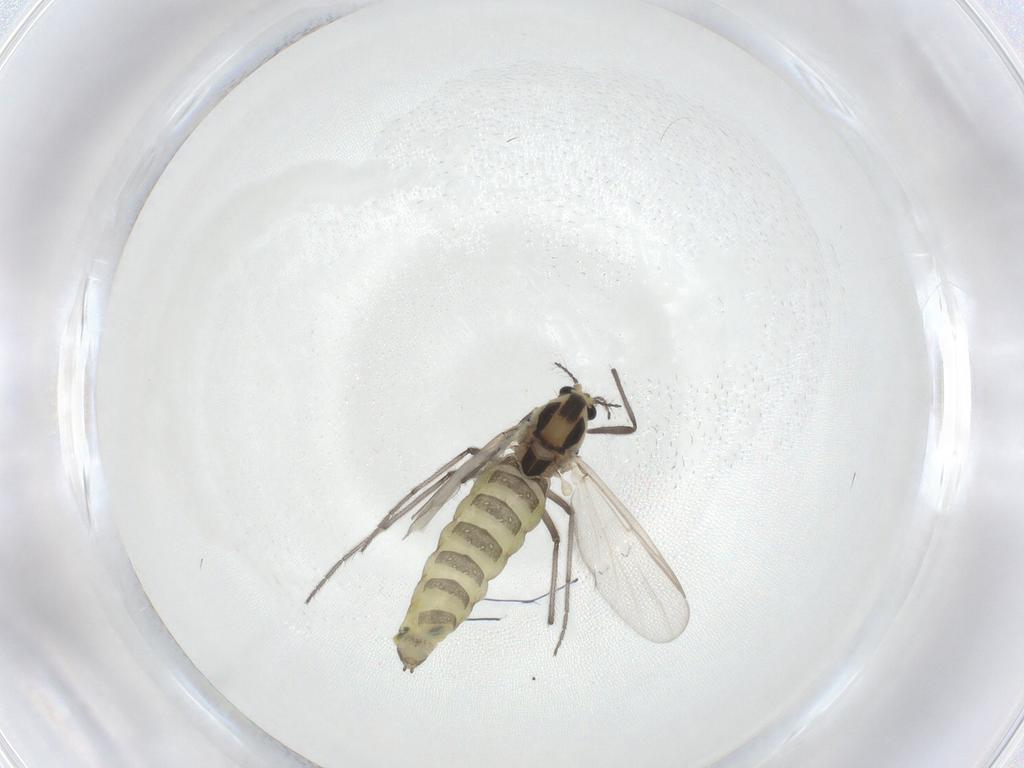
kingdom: Animalia
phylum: Arthropoda
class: Insecta
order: Diptera
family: Chironomidae
